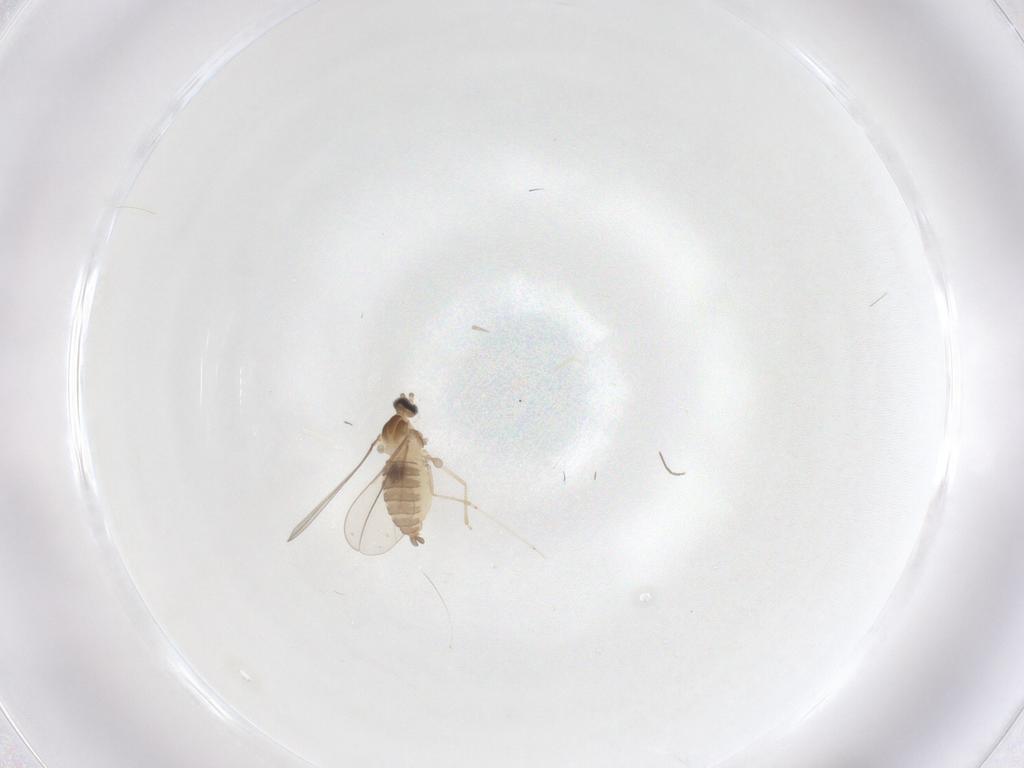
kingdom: Animalia
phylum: Arthropoda
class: Insecta
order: Diptera
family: Cecidomyiidae
